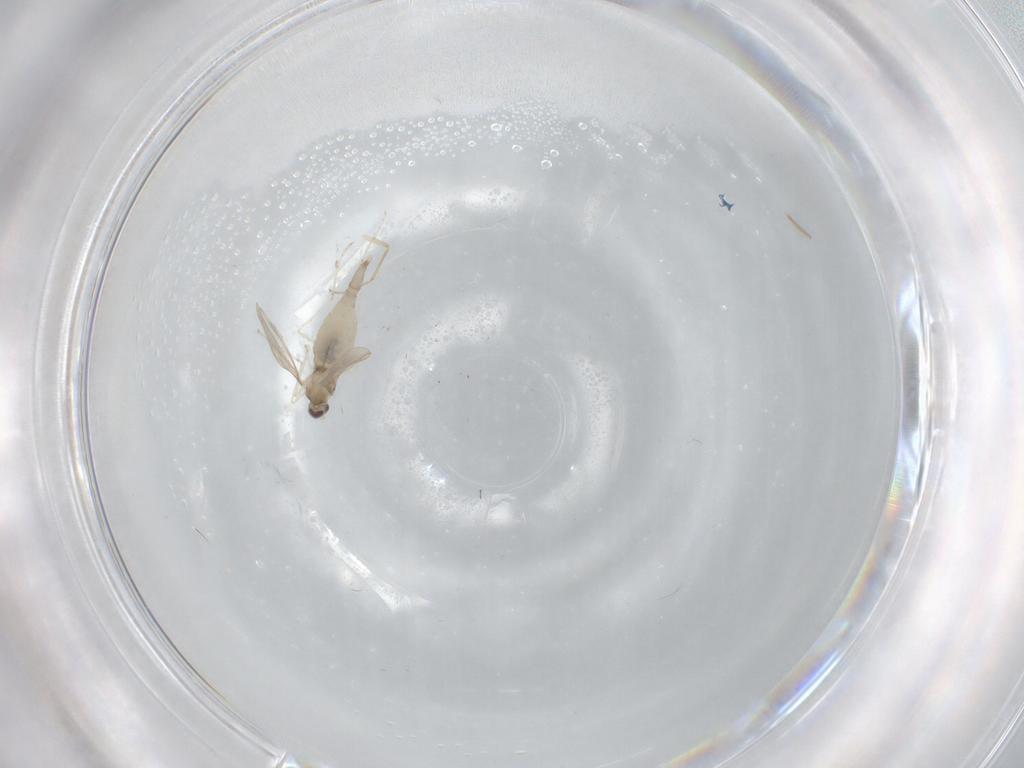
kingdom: Animalia
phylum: Arthropoda
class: Insecta
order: Diptera
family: Cecidomyiidae
